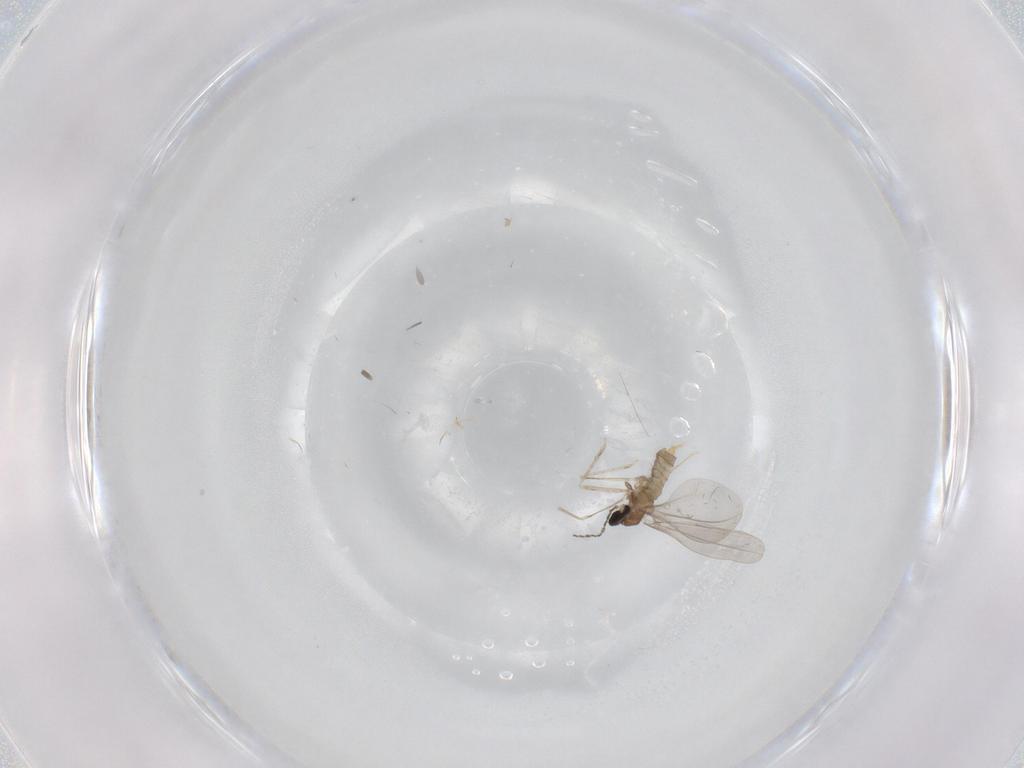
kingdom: Animalia
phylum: Arthropoda
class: Insecta
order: Diptera
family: Cecidomyiidae
